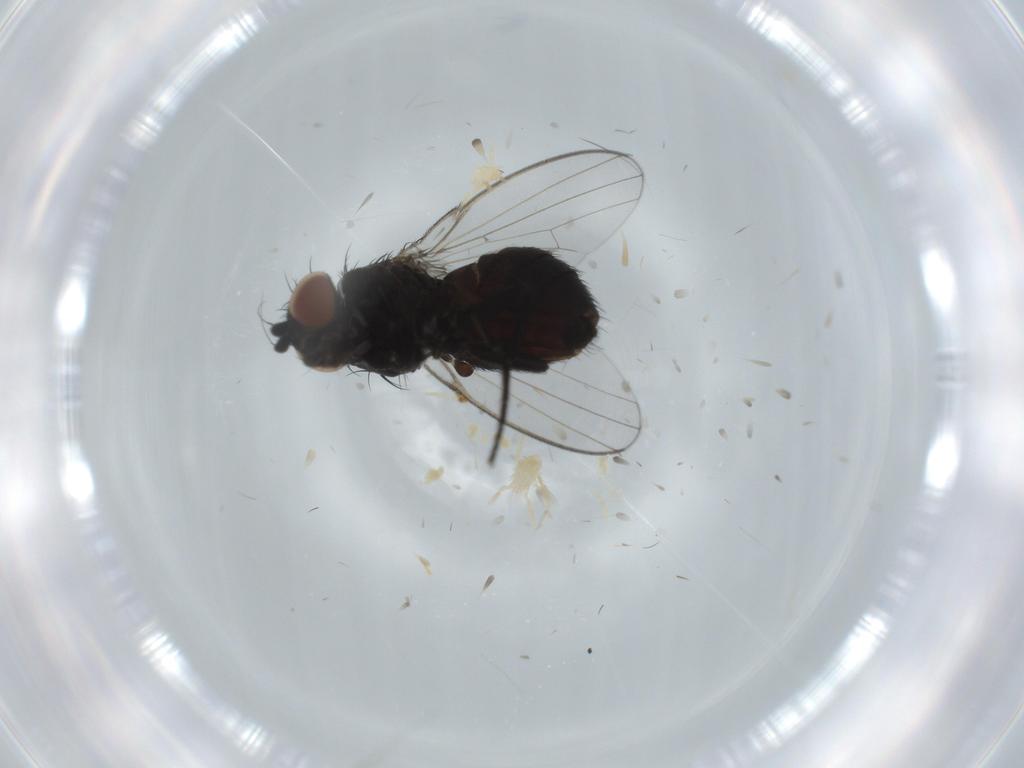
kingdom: Animalia
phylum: Arthropoda
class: Insecta
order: Diptera
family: Milichiidae
